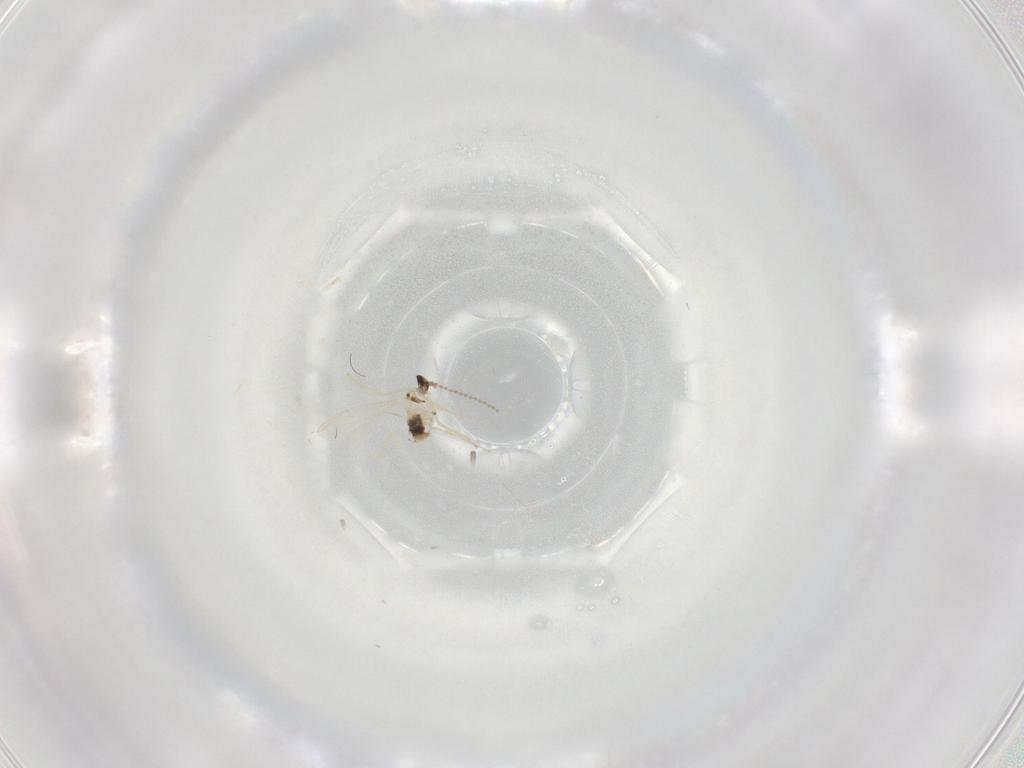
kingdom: Animalia
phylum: Arthropoda
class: Insecta
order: Diptera
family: Cecidomyiidae
